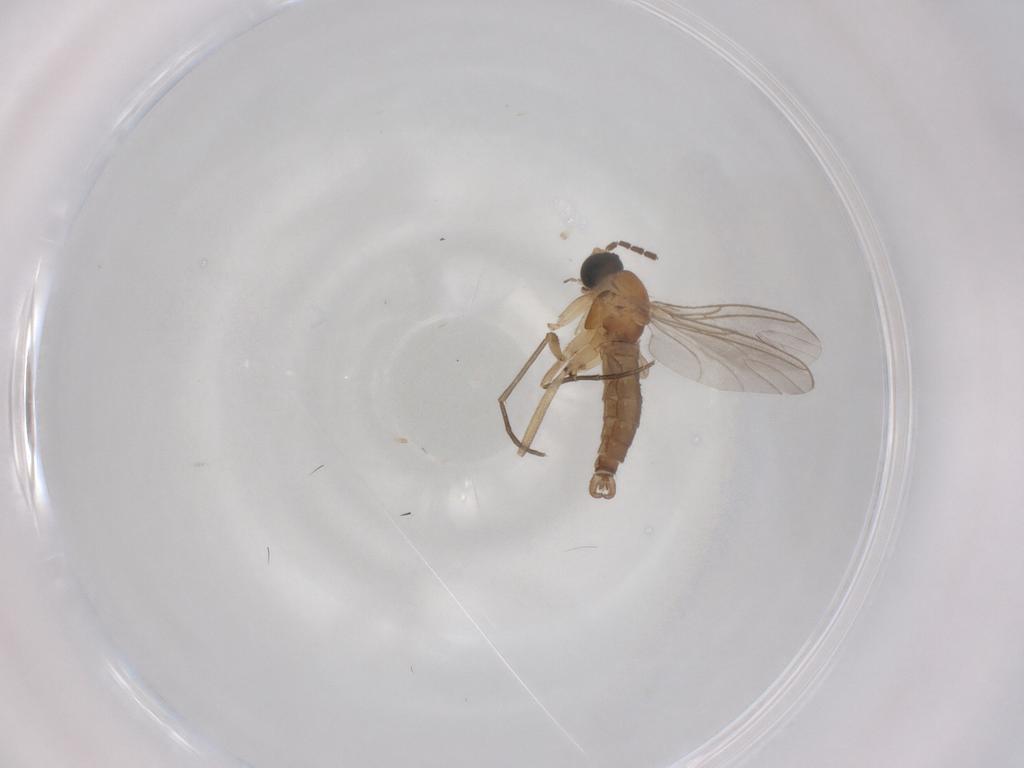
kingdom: Animalia
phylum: Arthropoda
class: Insecta
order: Diptera
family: Sciaridae
